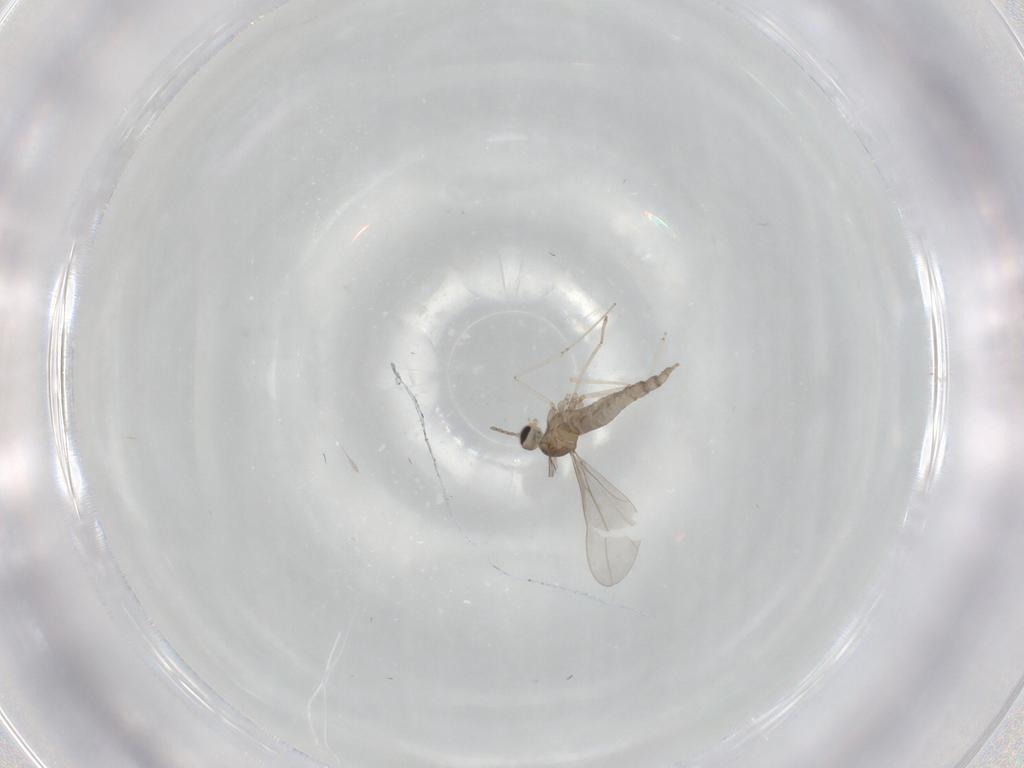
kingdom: Animalia
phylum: Arthropoda
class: Insecta
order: Diptera
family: Cecidomyiidae
